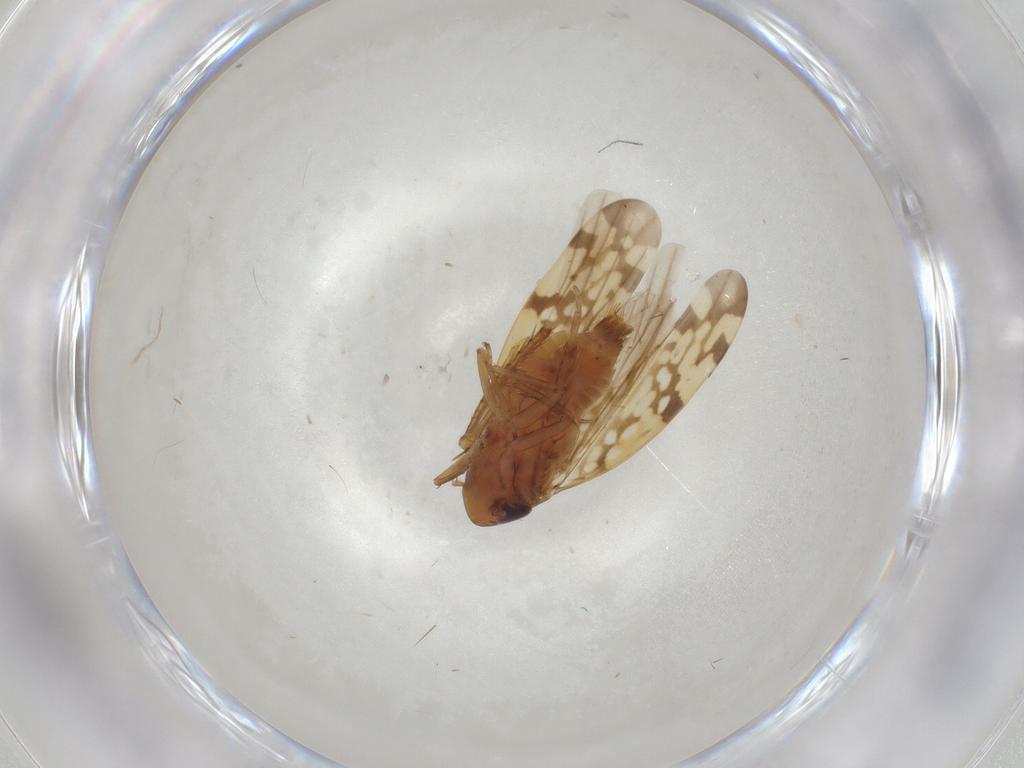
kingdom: Animalia
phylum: Arthropoda
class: Insecta
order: Hemiptera
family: Cicadellidae
